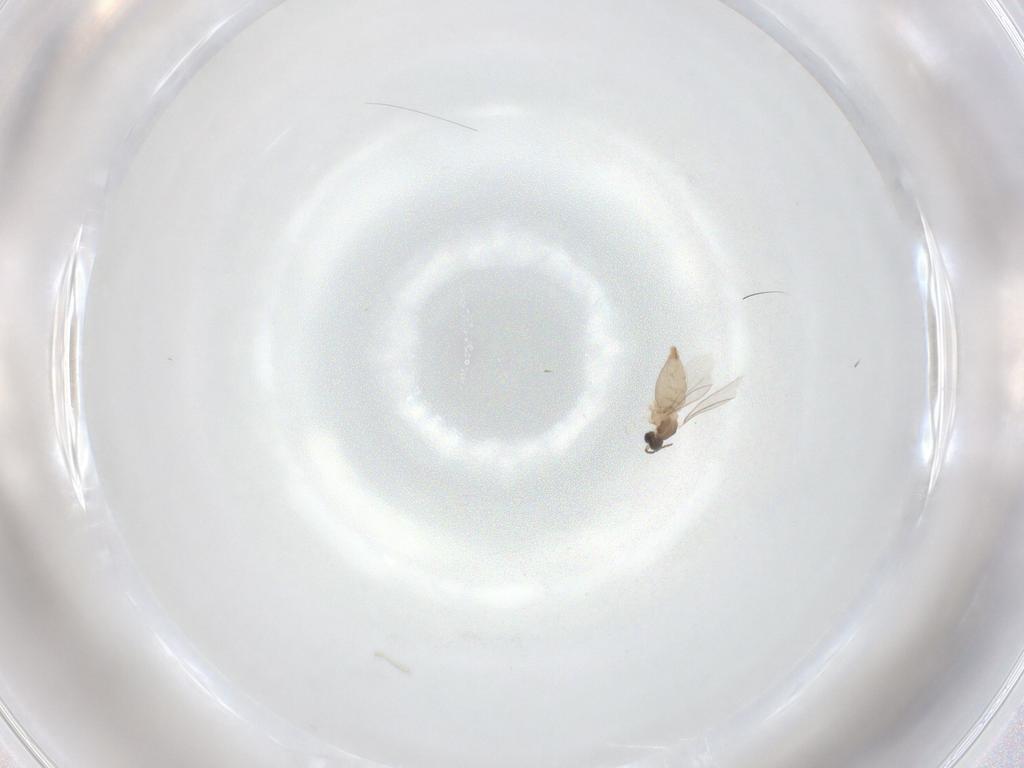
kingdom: Animalia
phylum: Arthropoda
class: Insecta
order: Diptera
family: Cecidomyiidae
